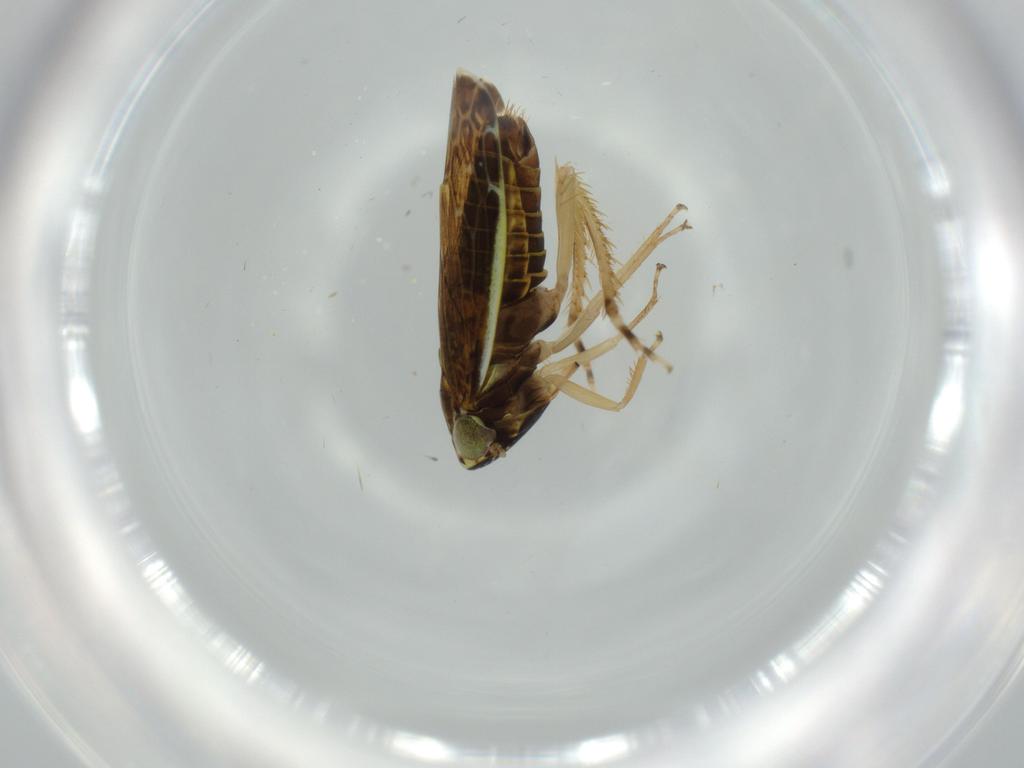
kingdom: Animalia
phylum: Arthropoda
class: Insecta
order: Hemiptera
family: Cicadellidae
